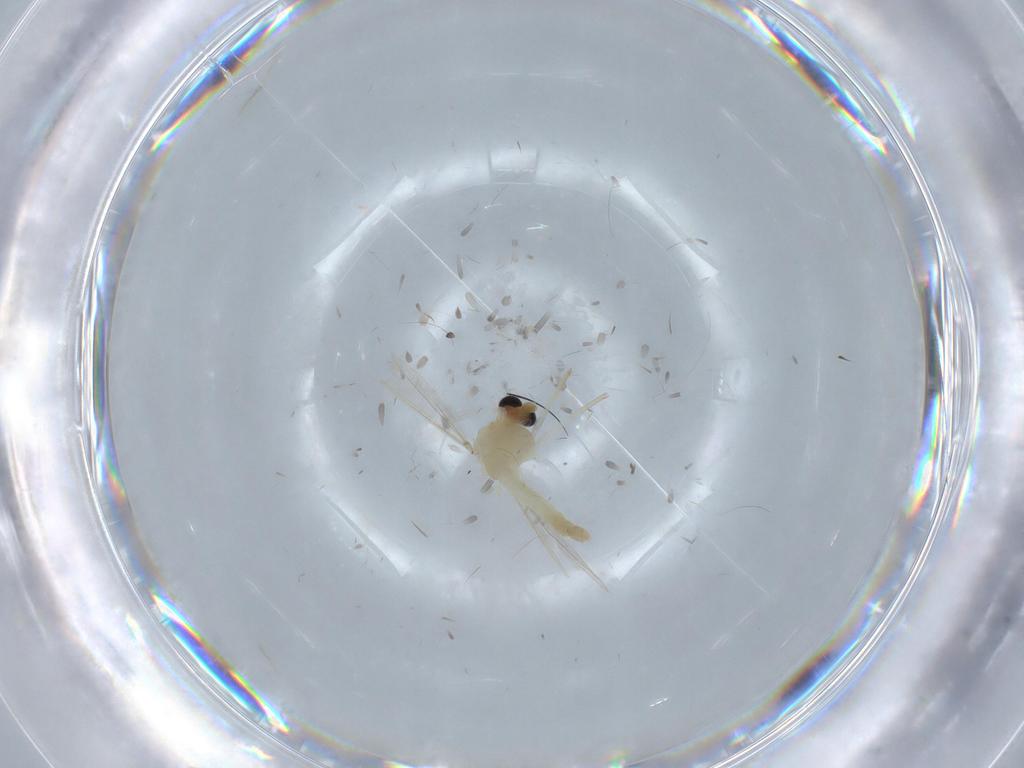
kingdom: Animalia
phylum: Arthropoda
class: Insecta
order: Diptera
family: Chironomidae
